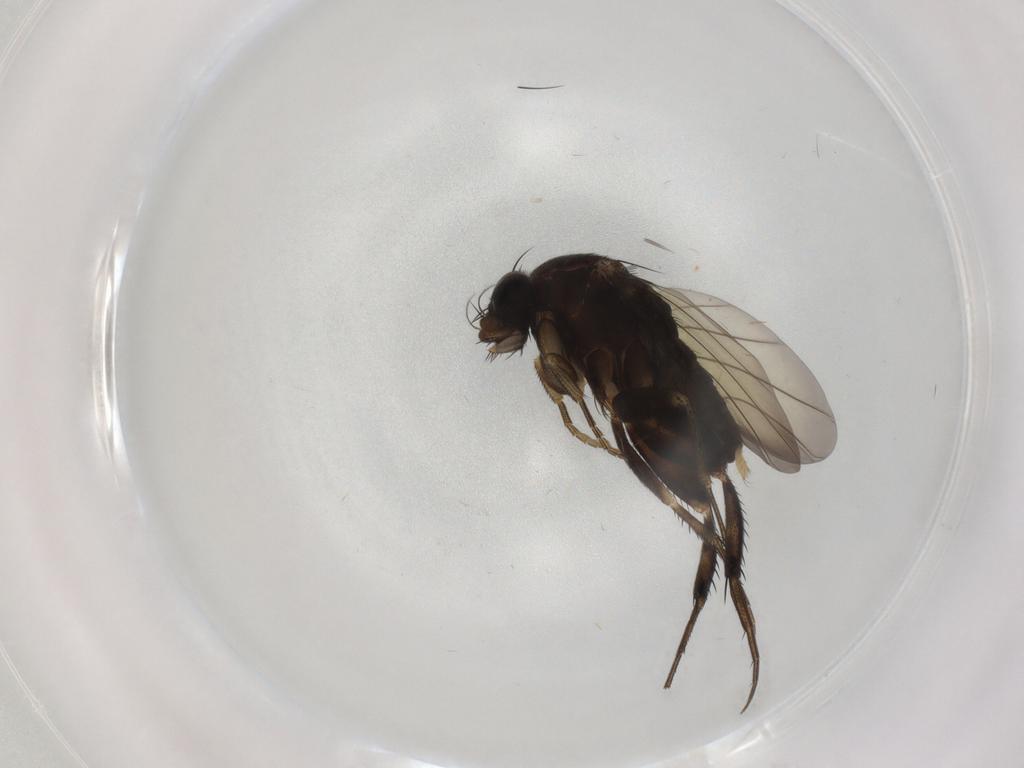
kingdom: Animalia
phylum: Arthropoda
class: Insecta
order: Diptera
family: Phoridae
